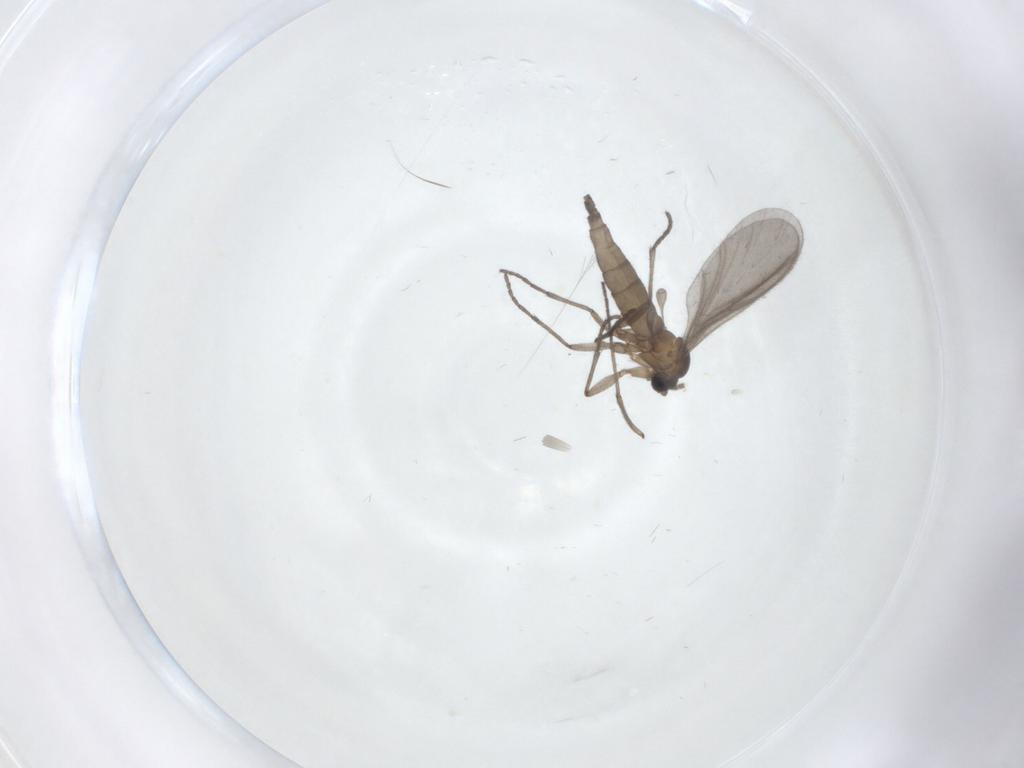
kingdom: Animalia
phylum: Arthropoda
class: Insecta
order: Diptera
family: Sciaridae
